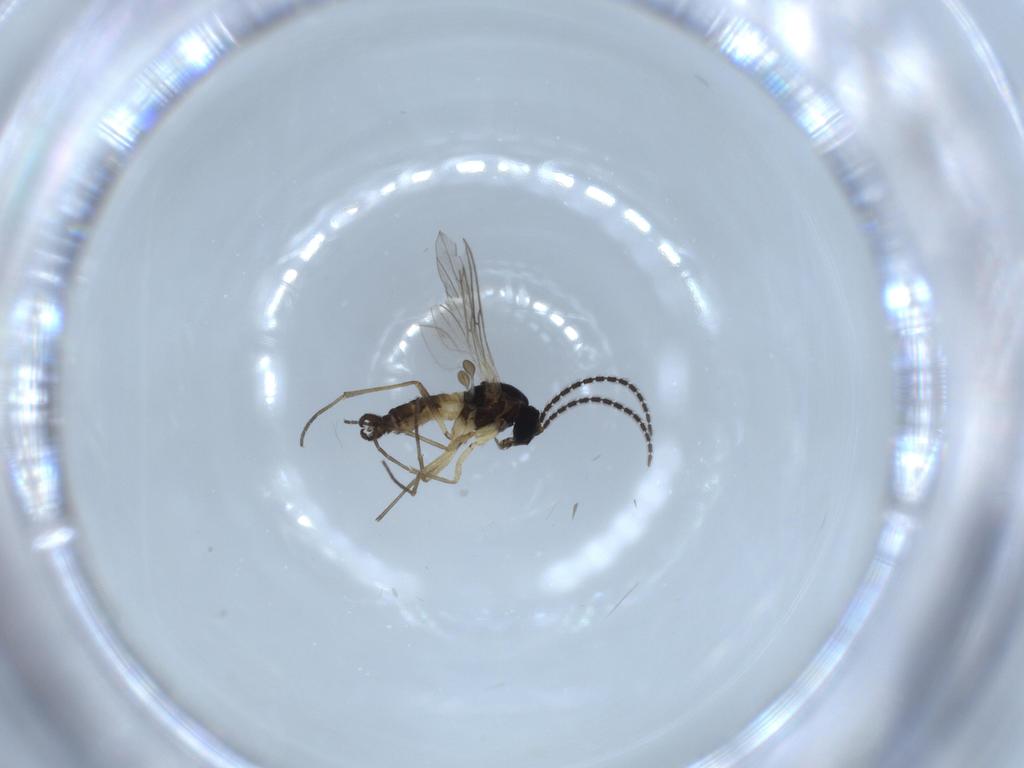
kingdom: Animalia
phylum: Arthropoda
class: Insecta
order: Diptera
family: Sciaridae
